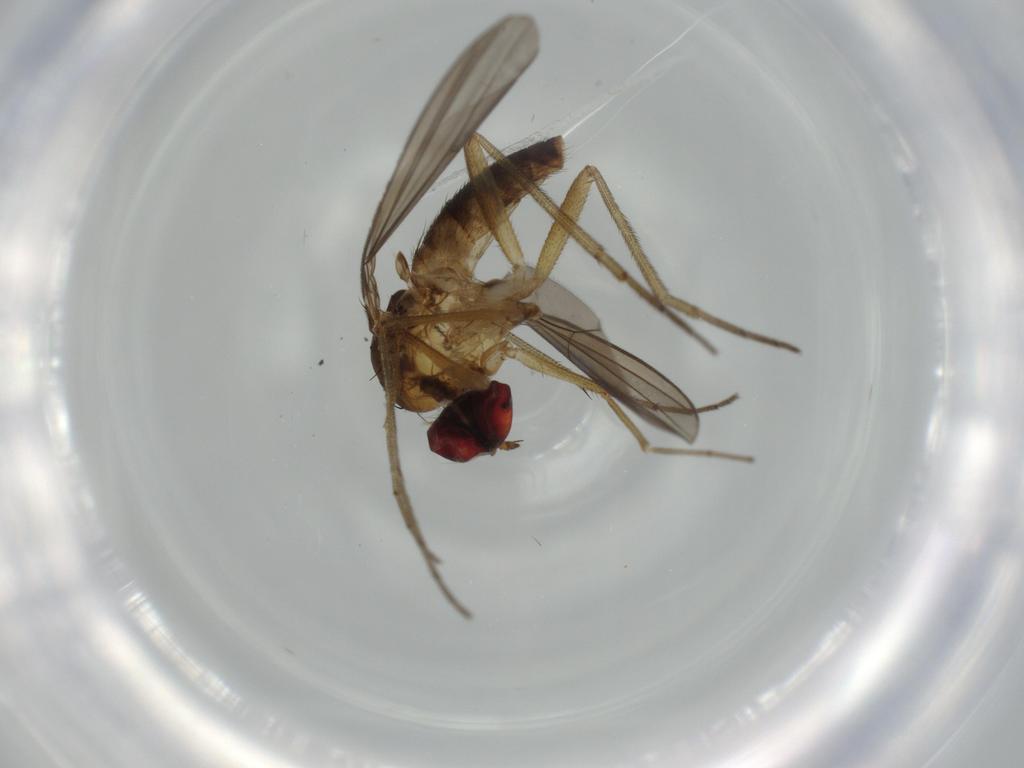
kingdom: Animalia
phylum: Arthropoda
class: Insecta
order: Diptera
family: Dolichopodidae
